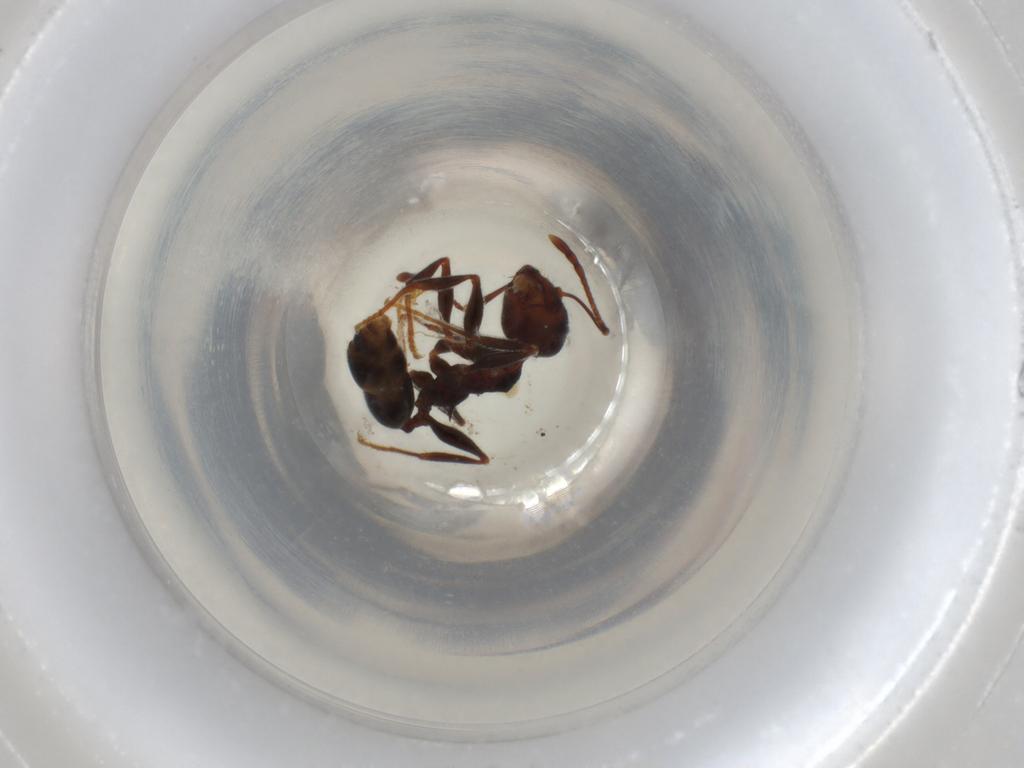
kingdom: Animalia
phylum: Arthropoda
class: Insecta
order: Hymenoptera
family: Formicidae
